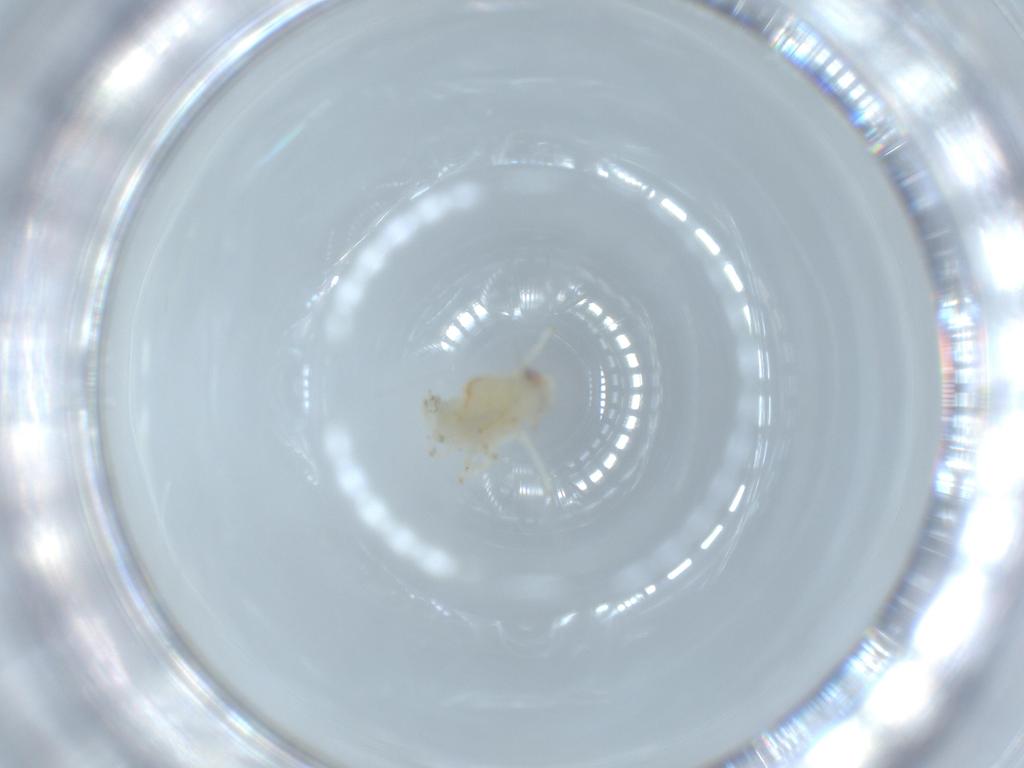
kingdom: Animalia
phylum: Arthropoda
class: Insecta
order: Hemiptera
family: Nogodinidae
